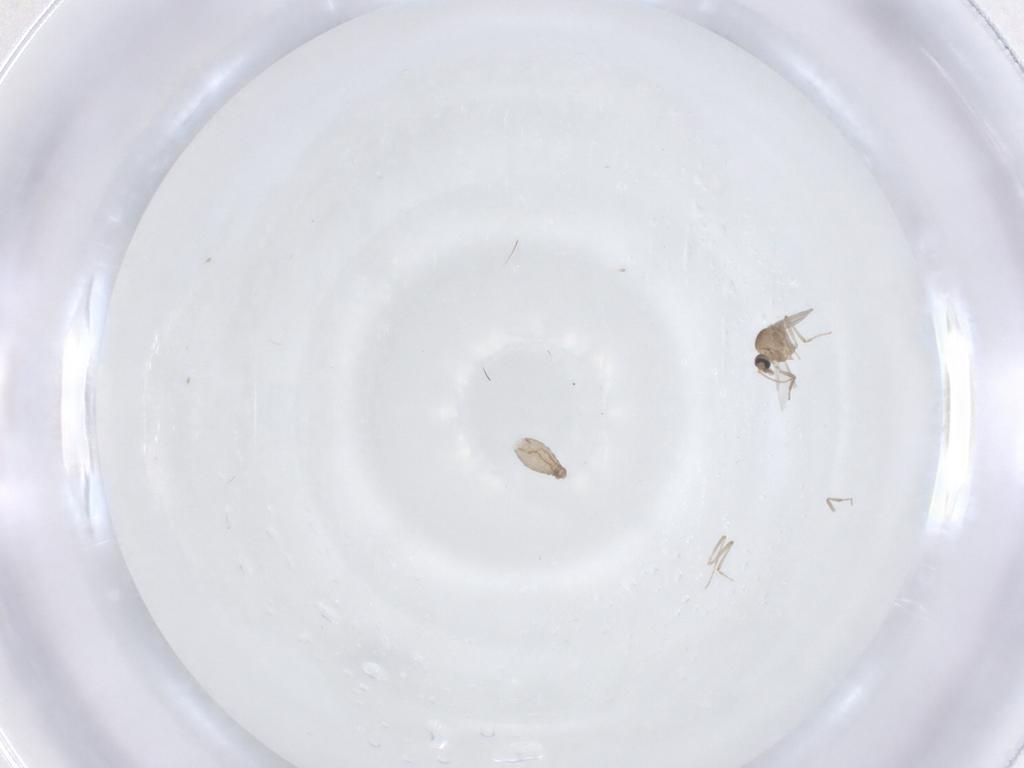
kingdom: Animalia
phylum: Arthropoda
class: Insecta
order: Diptera
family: Ceratopogonidae
